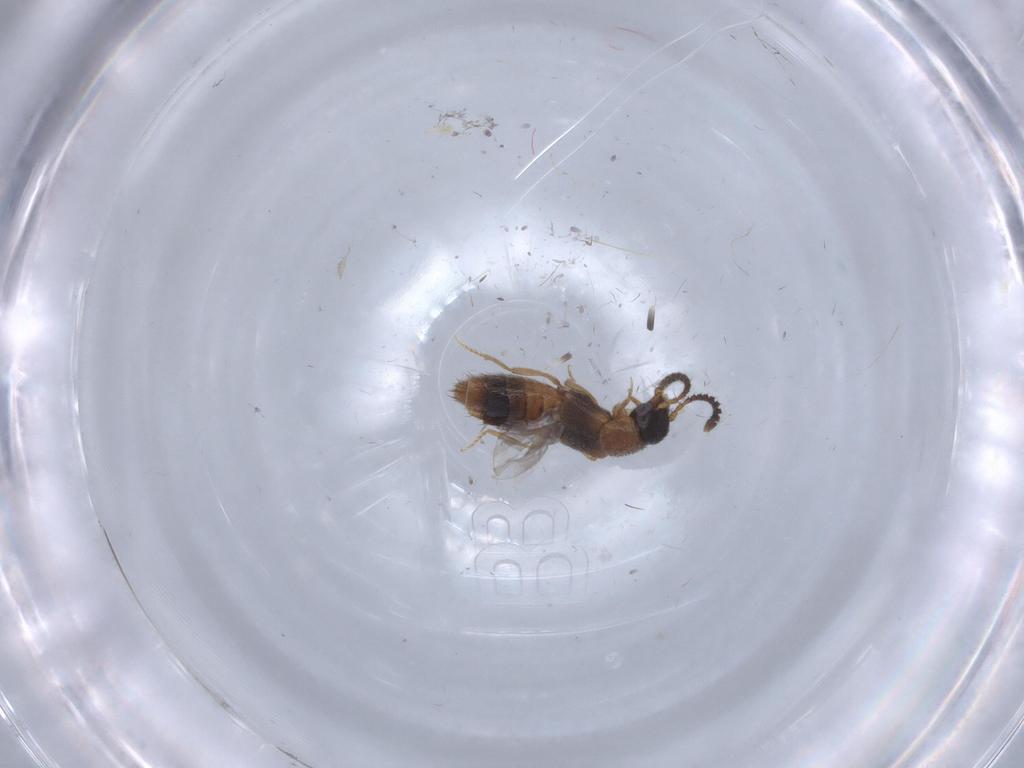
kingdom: Animalia
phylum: Arthropoda
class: Insecta
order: Coleoptera
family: Staphylinidae
